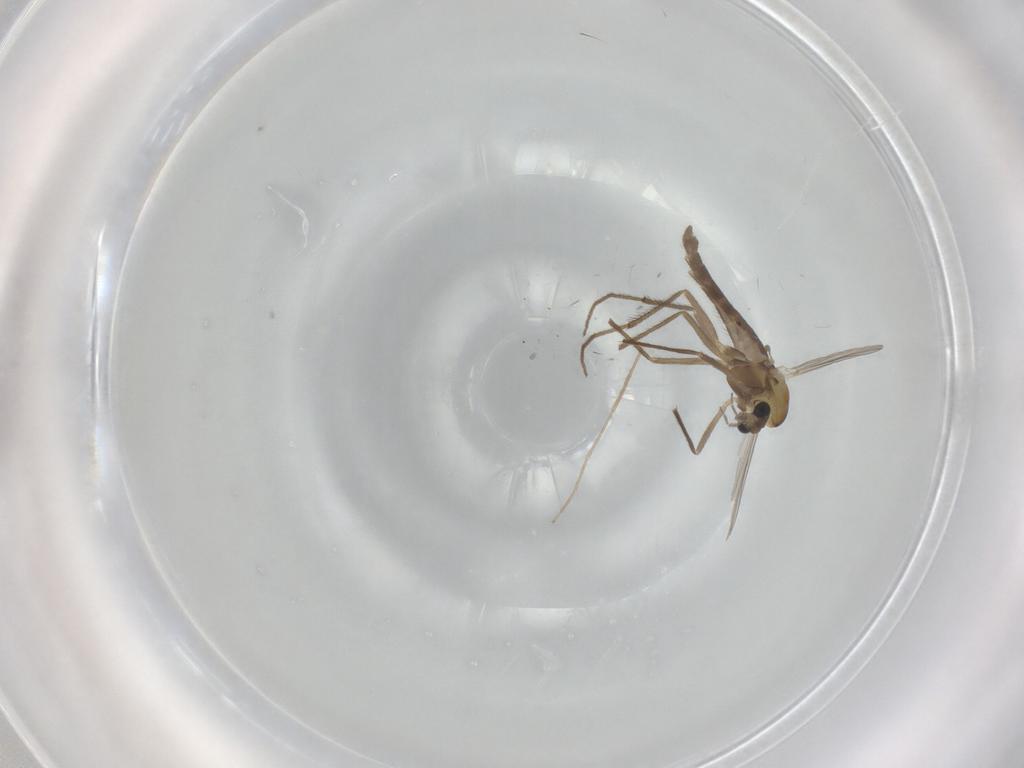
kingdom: Animalia
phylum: Arthropoda
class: Insecta
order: Diptera
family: Chironomidae
